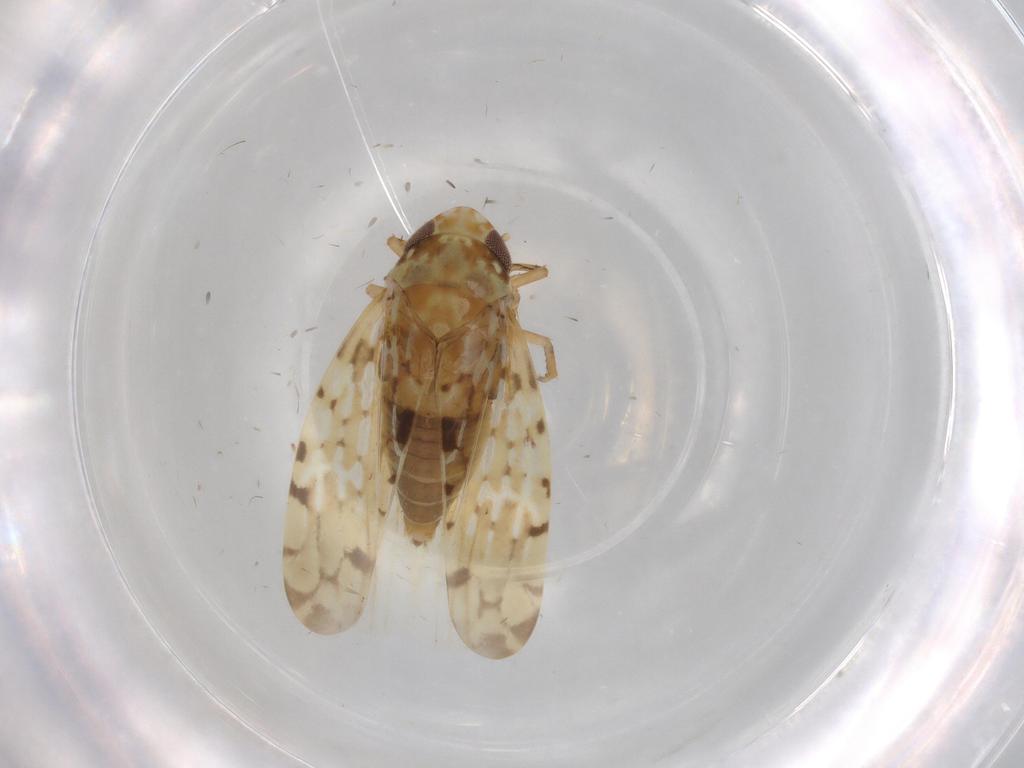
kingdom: Animalia
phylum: Arthropoda
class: Insecta
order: Hemiptera
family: Cicadellidae
